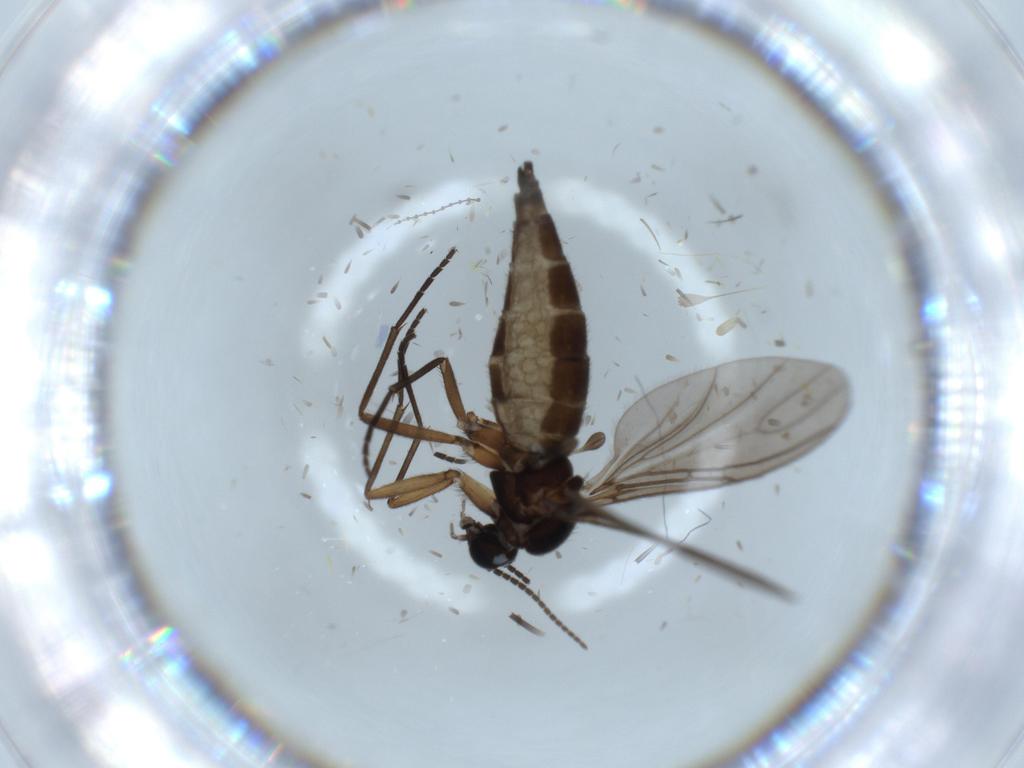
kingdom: Animalia
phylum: Arthropoda
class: Insecta
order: Diptera
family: Sciaridae
